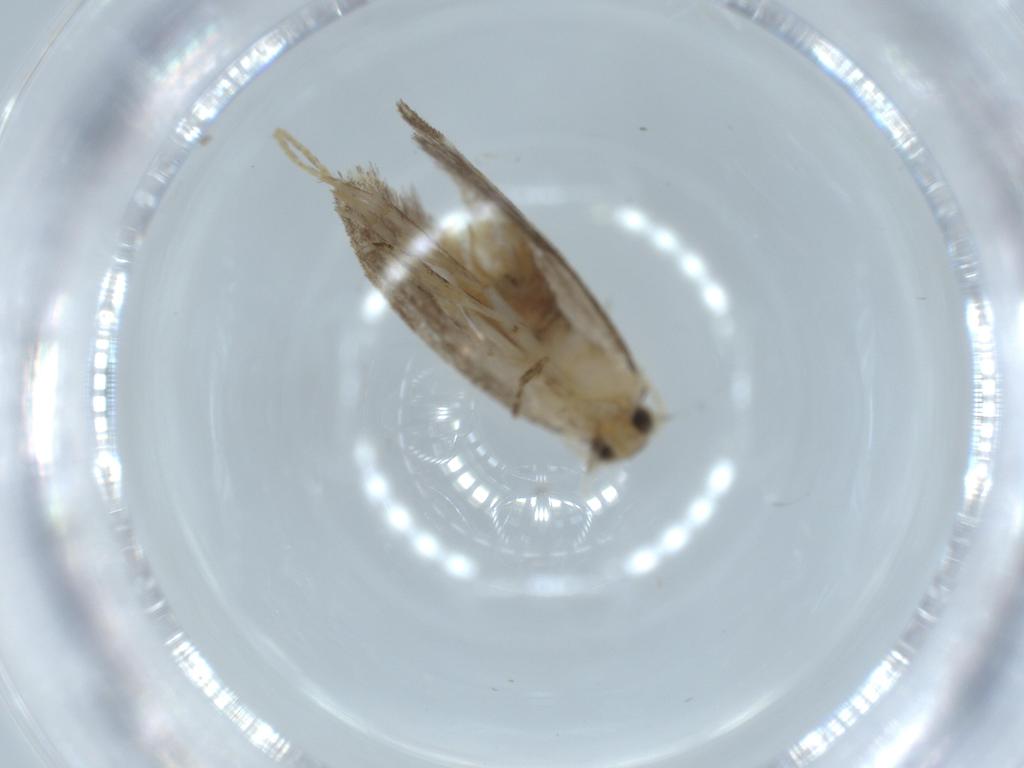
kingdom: Animalia
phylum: Arthropoda
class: Insecta
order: Lepidoptera
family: Tineidae
